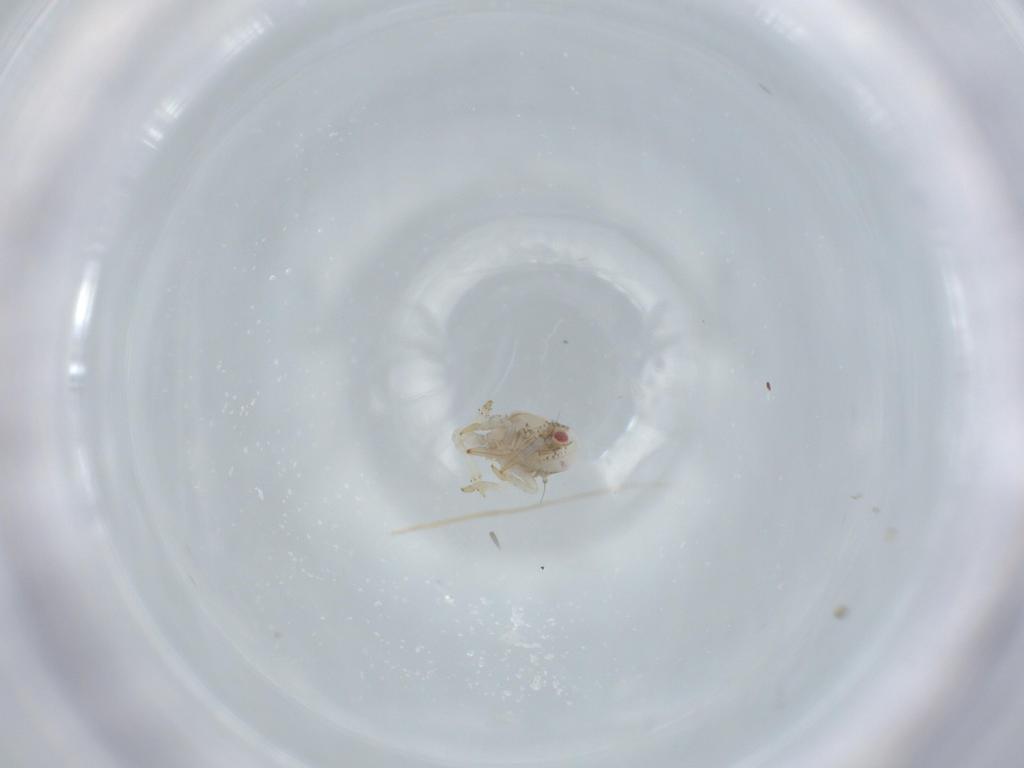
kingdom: Animalia
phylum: Arthropoda
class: Insecta
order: Hemiptera
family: Acanaloniidae
